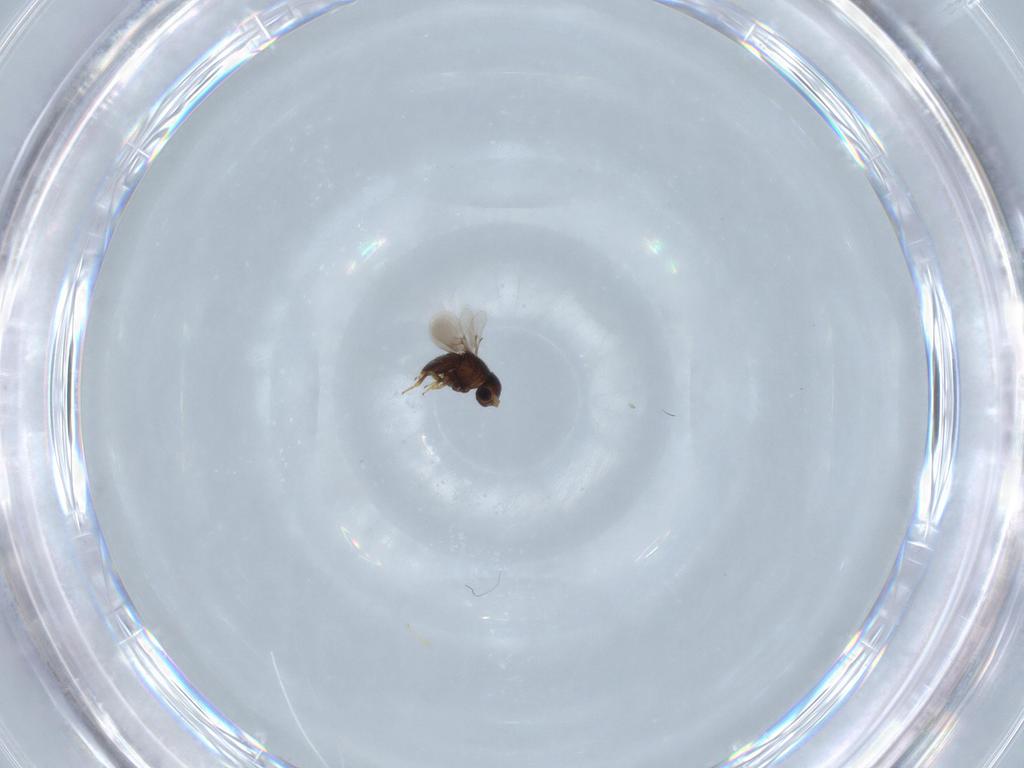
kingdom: Animalia
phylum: Arthropoda
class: Insecta
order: Hymenoptera
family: Scelionidae
